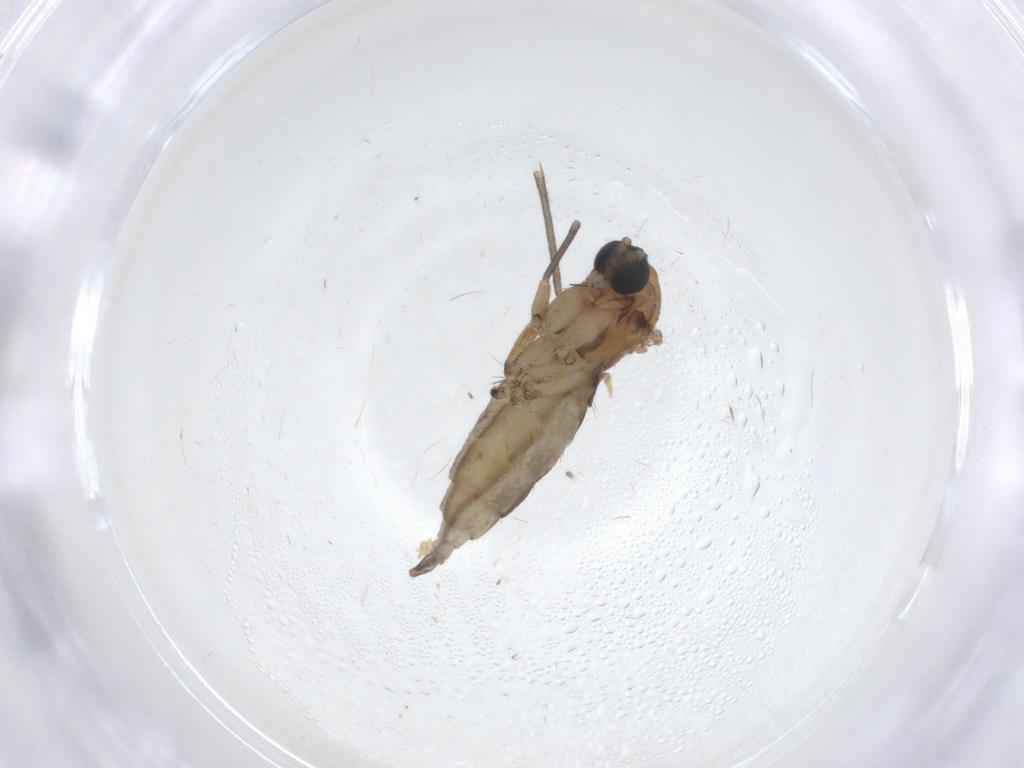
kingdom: Animalia
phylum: Arthropoda
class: Insecta
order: Diptera
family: Sciaridae
